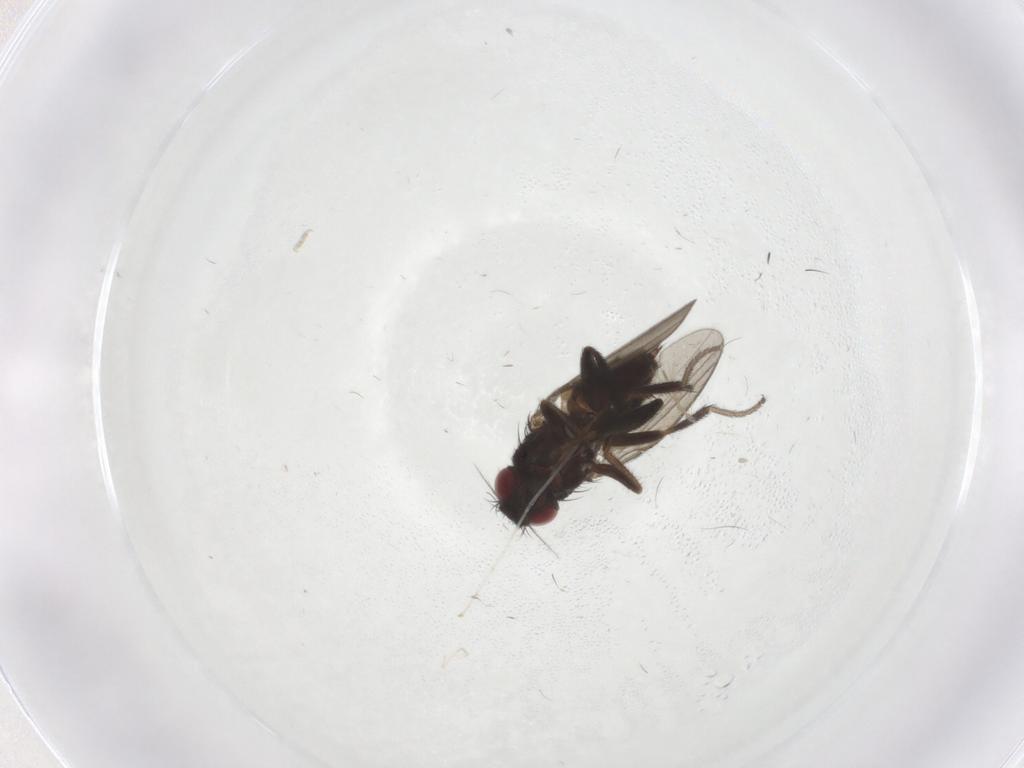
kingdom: Animalia
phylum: Arthropoda
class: Insecta
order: Diptera
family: Milichiidae
